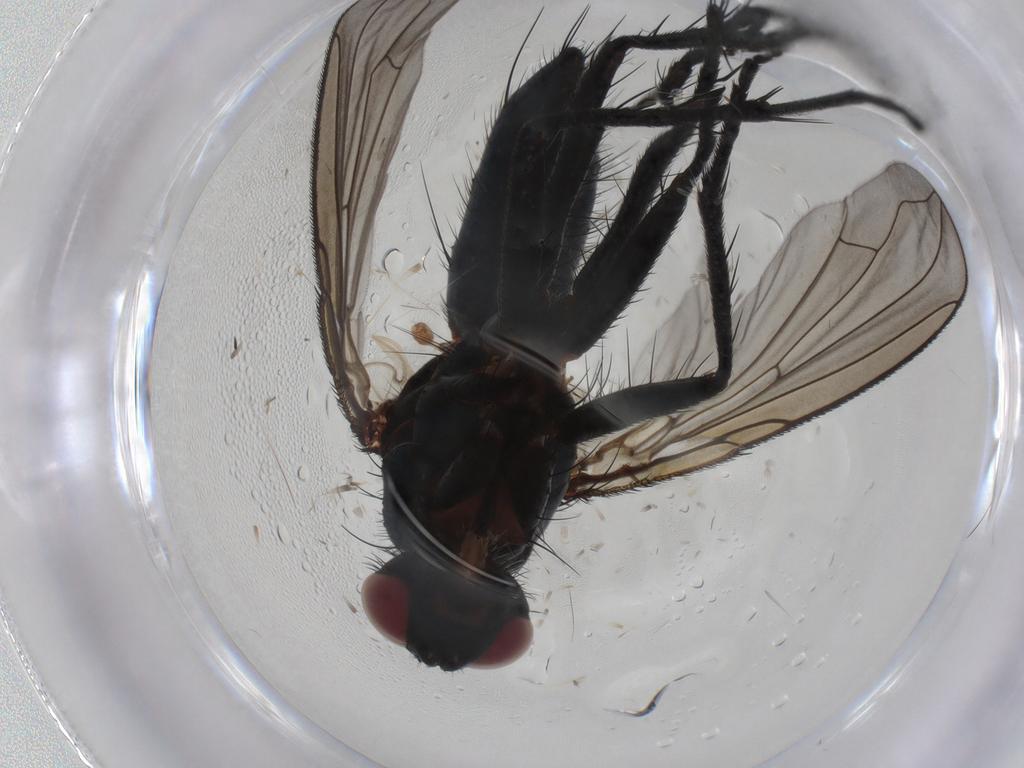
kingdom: Animalia
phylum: Arthropoda
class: Insecta
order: Diptera
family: Tachinidae
